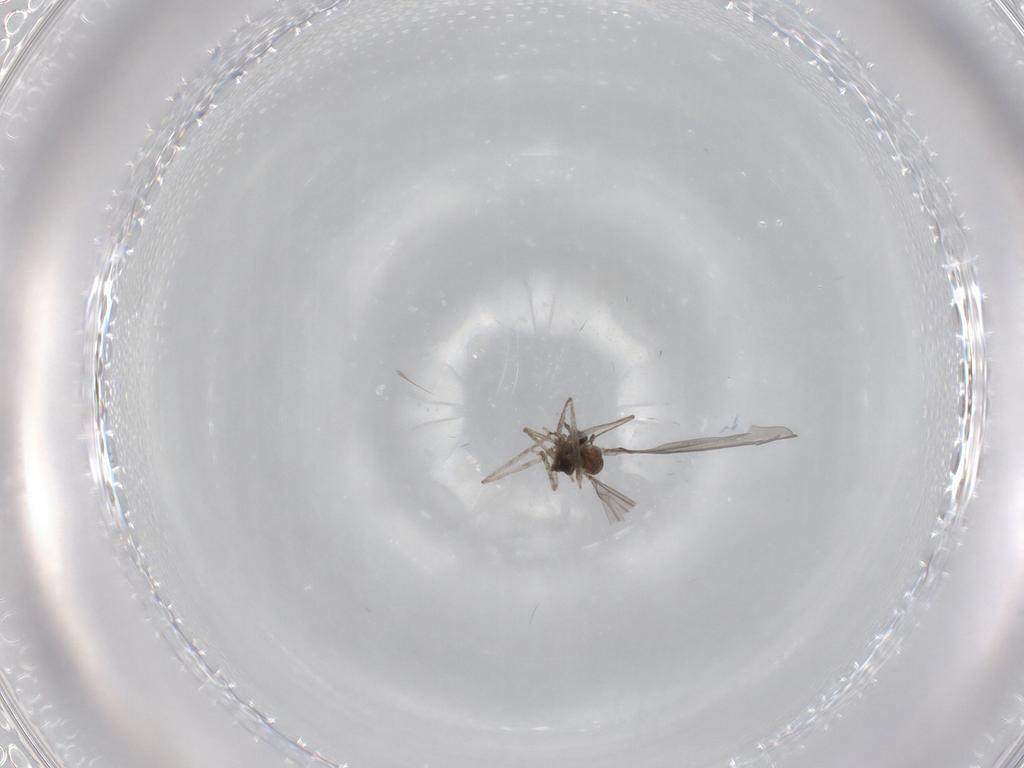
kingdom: Animalia
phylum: Arthropoda
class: Insecta
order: Diptera
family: Cecidomyiidae
